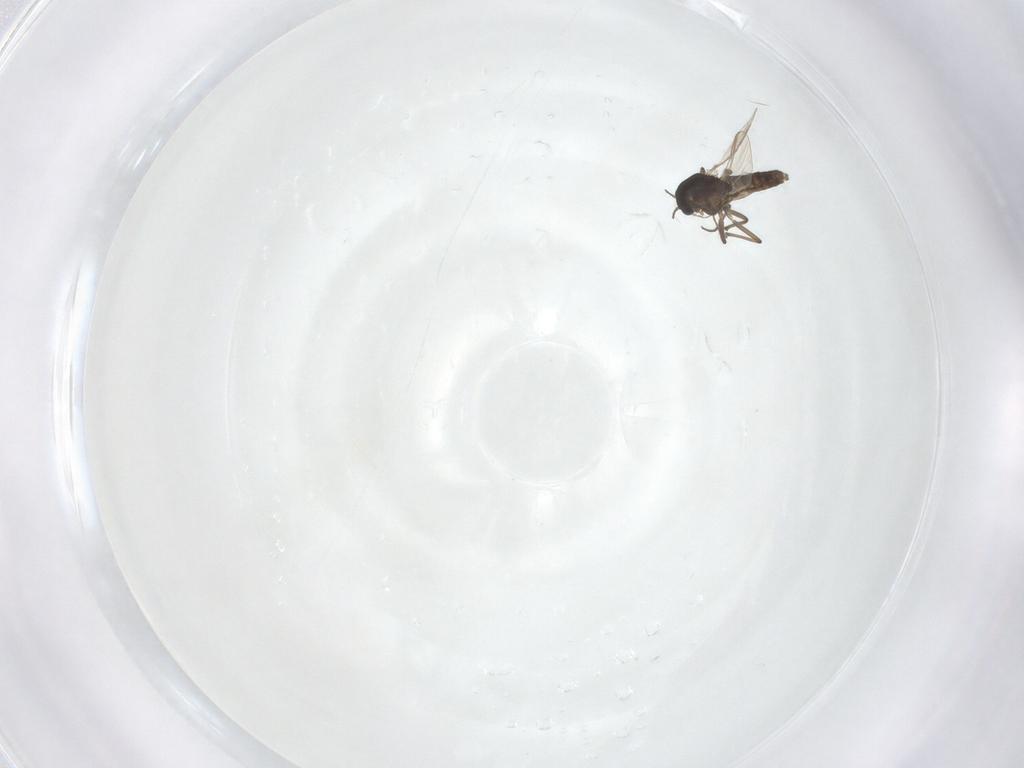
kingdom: Animalia
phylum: Arthropoda
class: Insecta
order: Diptera
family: Chironomidae
